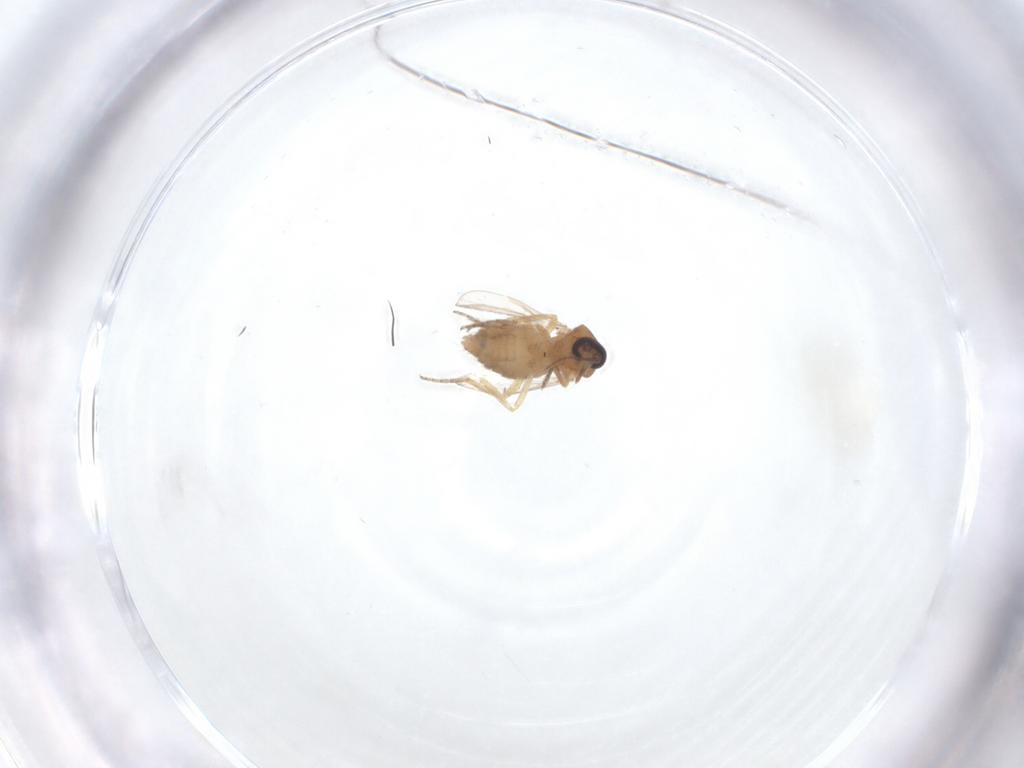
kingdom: Animalia
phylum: Arthropoda
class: Insecta
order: Diptera
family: Ceratopogonidae
